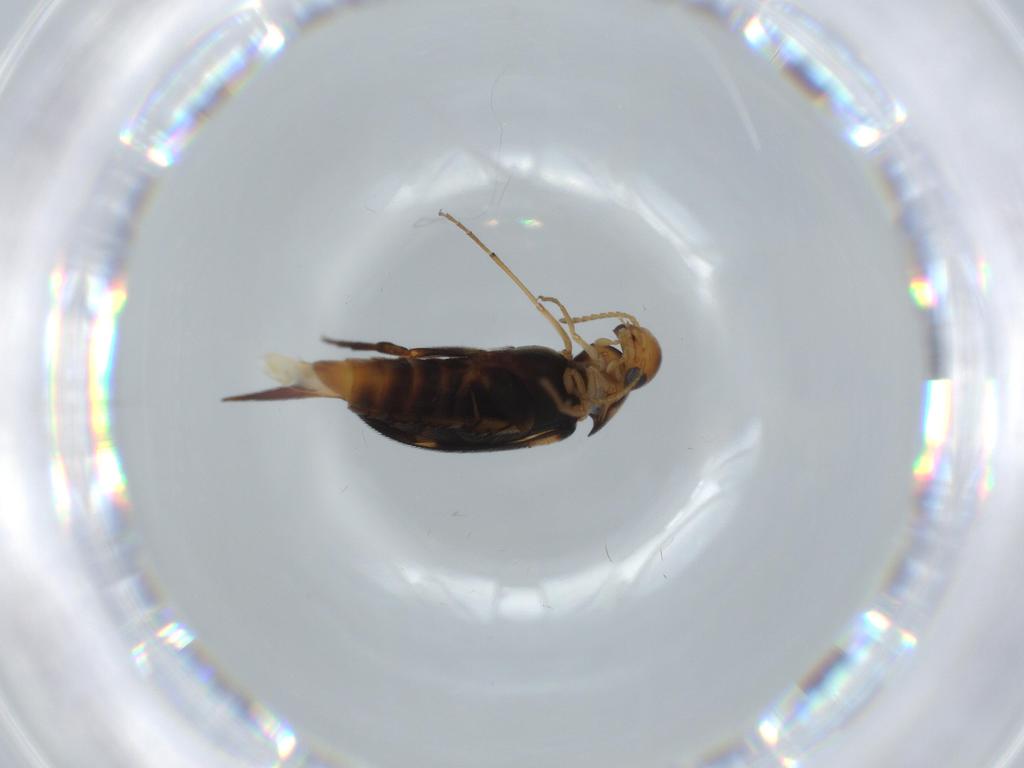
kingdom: Animalia
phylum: Arthropoda
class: Insecta
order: Coleoptera
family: Mordellidae
